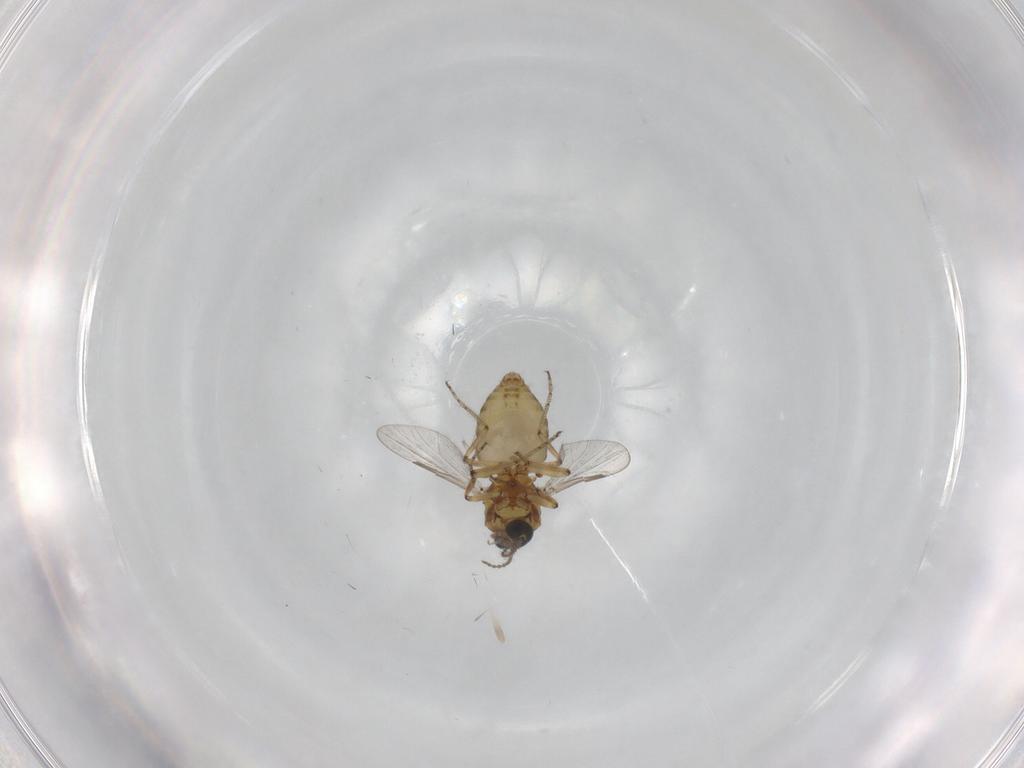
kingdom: Animalia
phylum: Arthropoda
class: Insecta
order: Diptera
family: Ceratopogonidae
